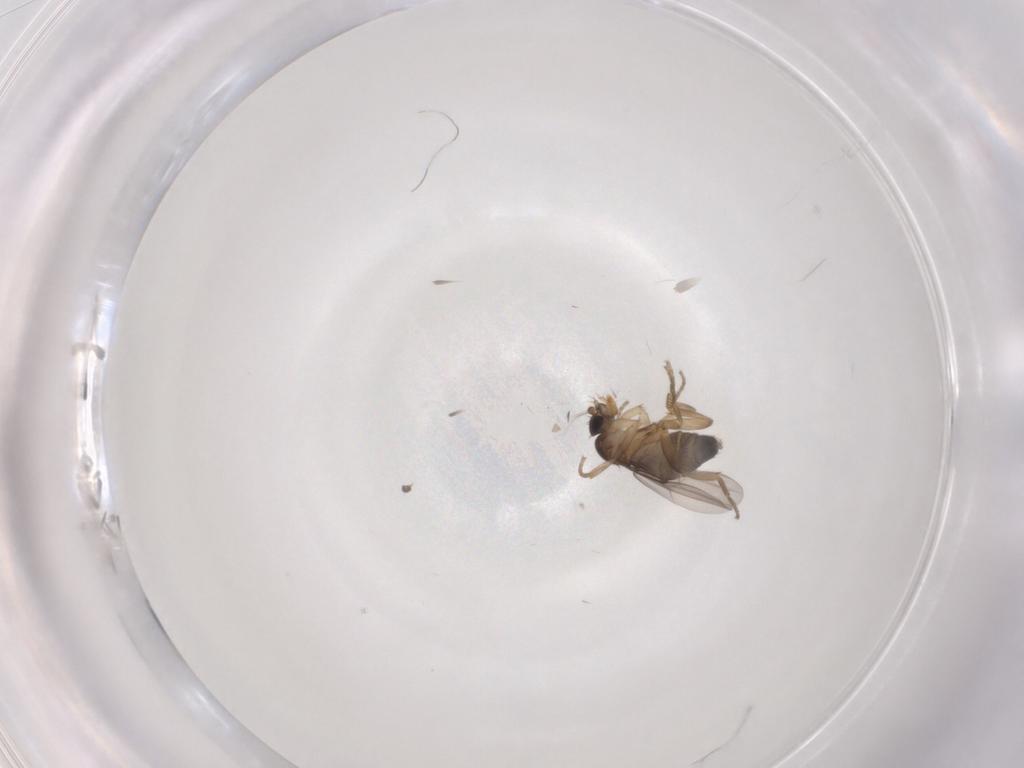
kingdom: Animalia
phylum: Arthropoda
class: Insecta
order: Diptera
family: Phoridae
